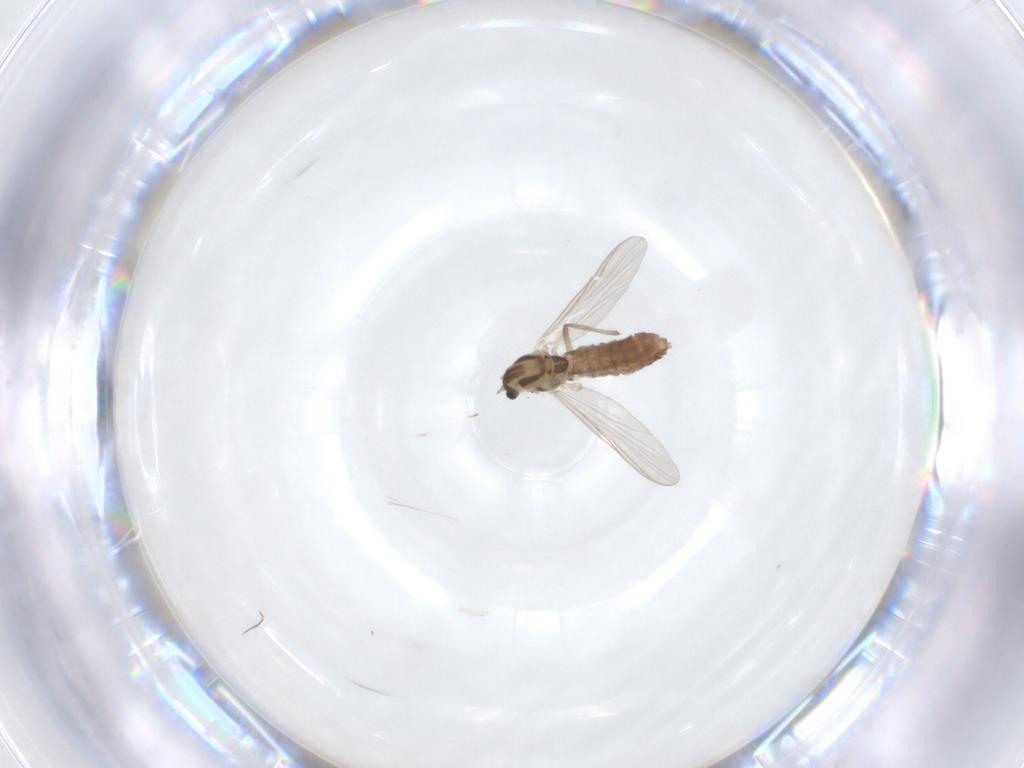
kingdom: Animalia
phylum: Arthropoda
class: Insecta
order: Diptera
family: Chironomidae
